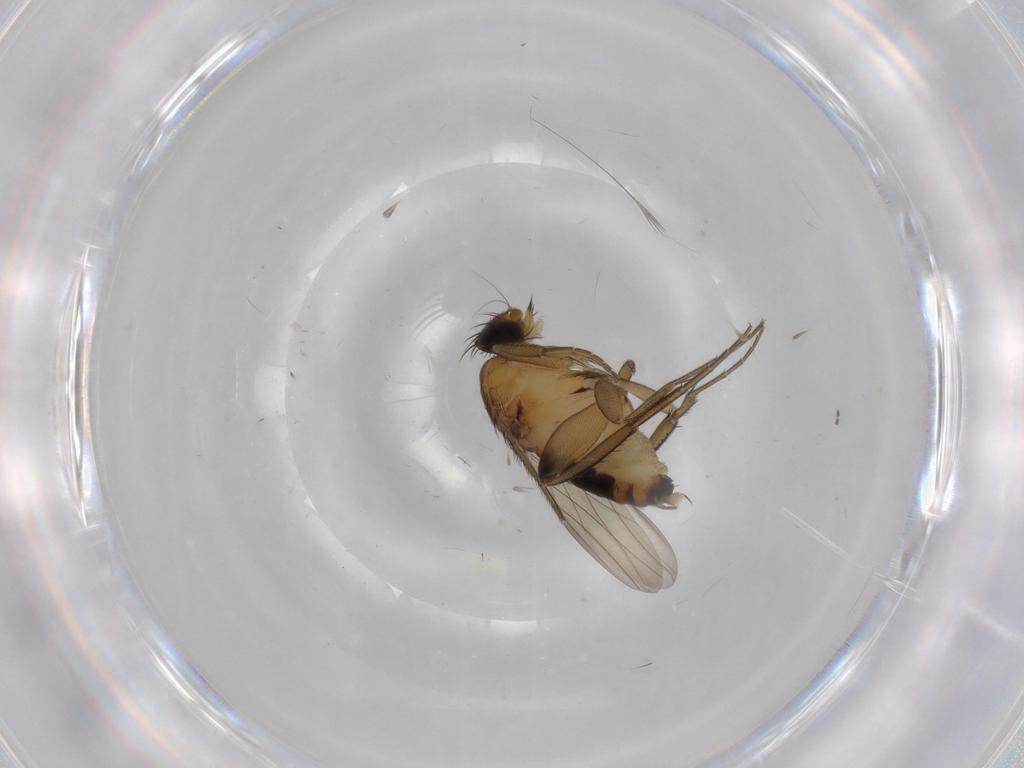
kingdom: Animalia
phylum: Arthropoda
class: Insecta
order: Diptera
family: Phoridae
